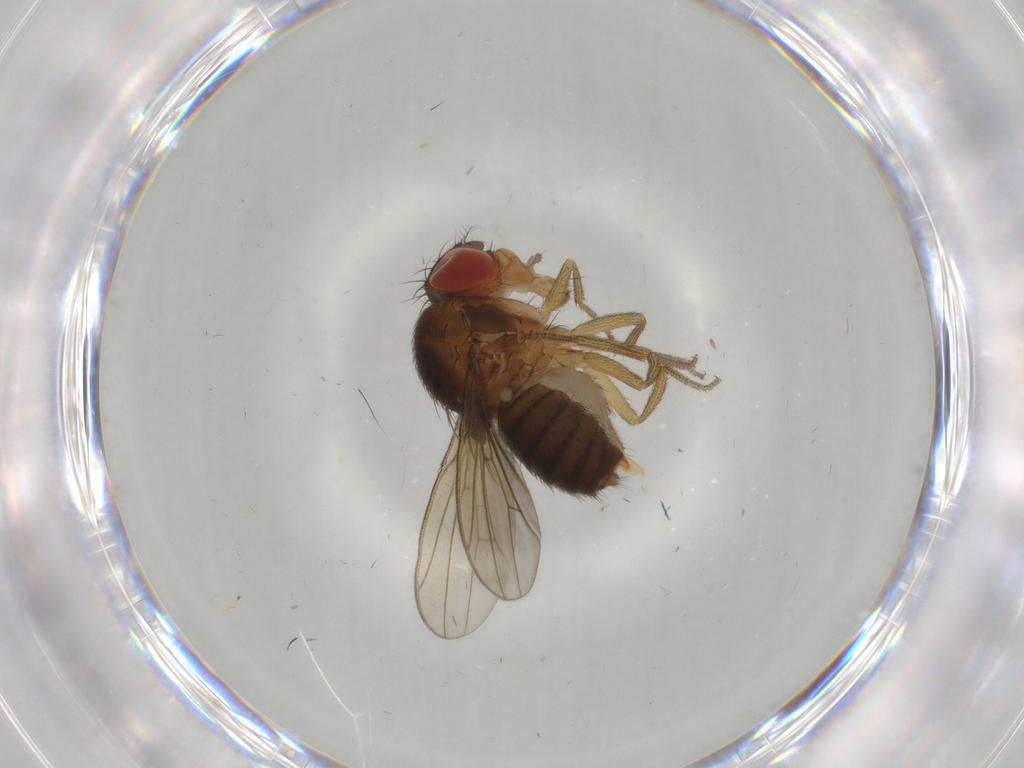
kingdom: Animalia
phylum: Arthropoda
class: Insecta
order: Diptera
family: Drosophilidae
